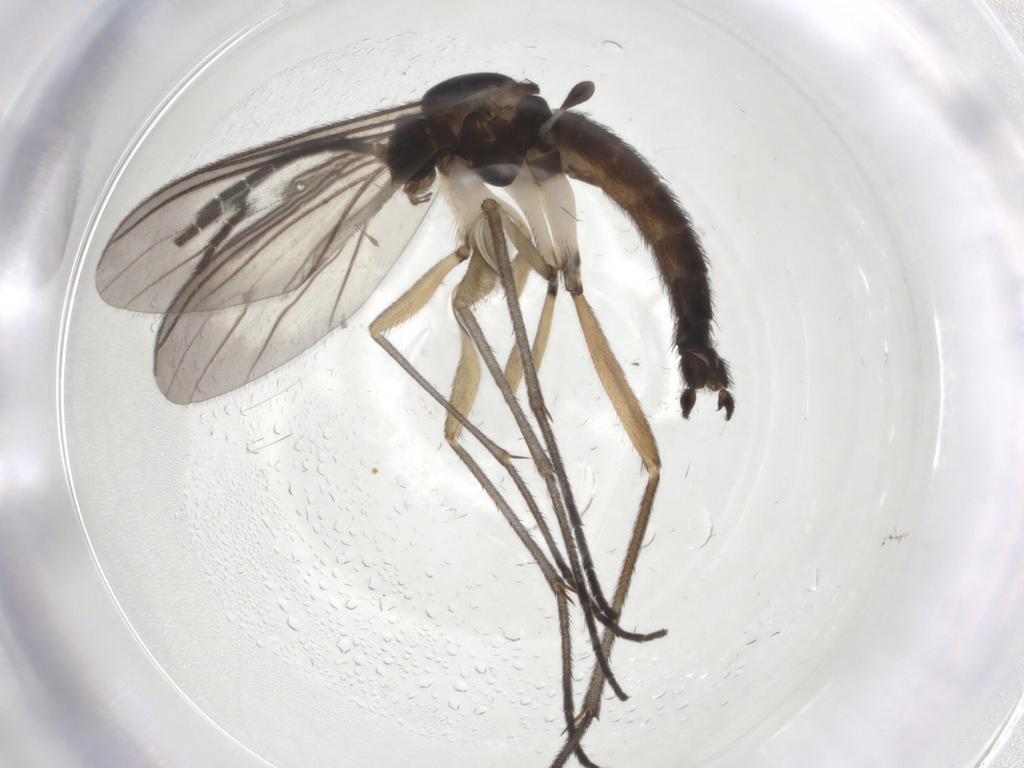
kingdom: Animalia
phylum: Arthropoda
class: Insecta
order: Diptera
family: Sciaridae
